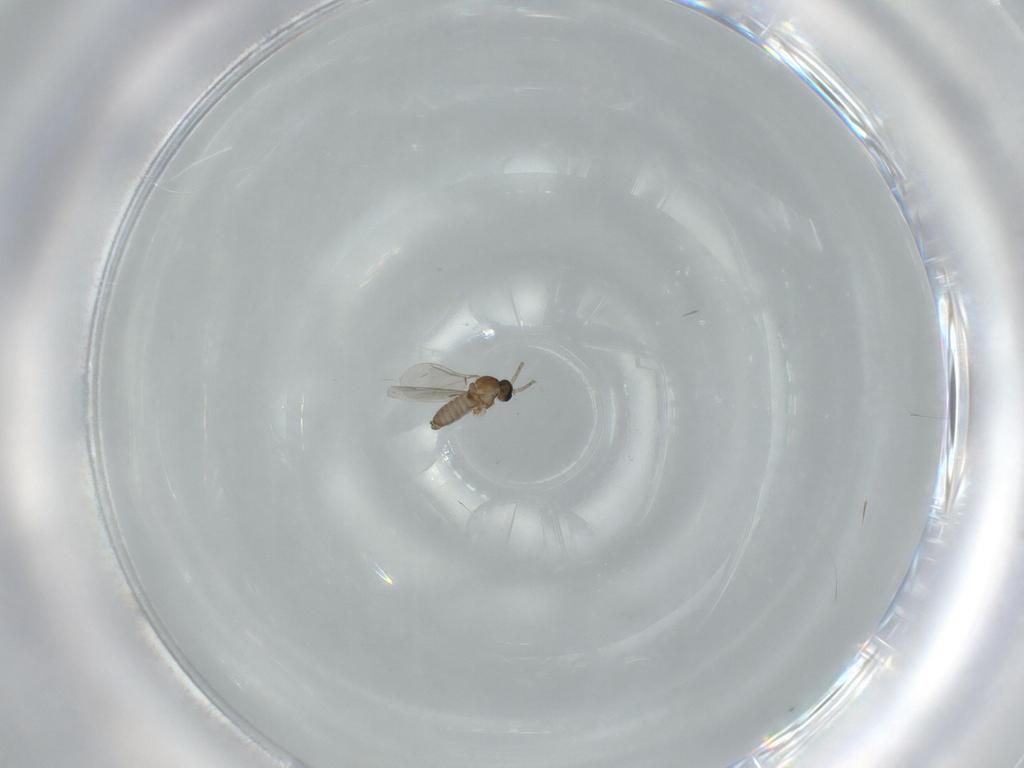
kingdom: Animalia
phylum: Arthropoda
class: Insecta
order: Diptera
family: Cecidomyiidae
